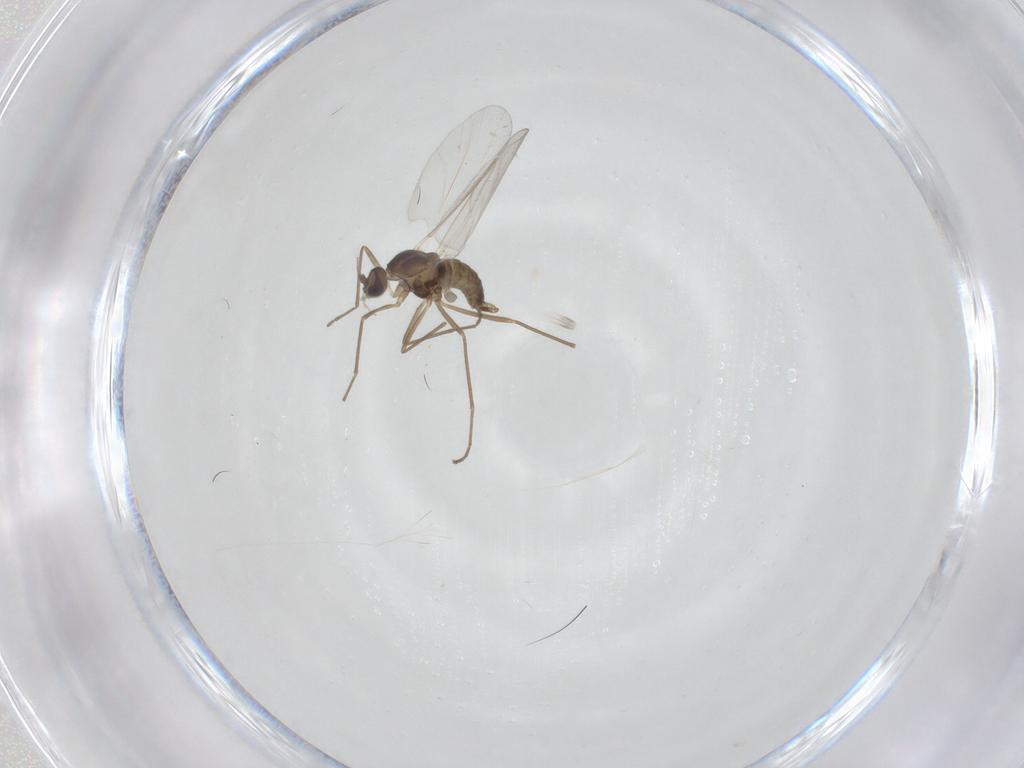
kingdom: Animalia
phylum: Arthropoda
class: Insecta
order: Diptera
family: Cecidomyiidae
